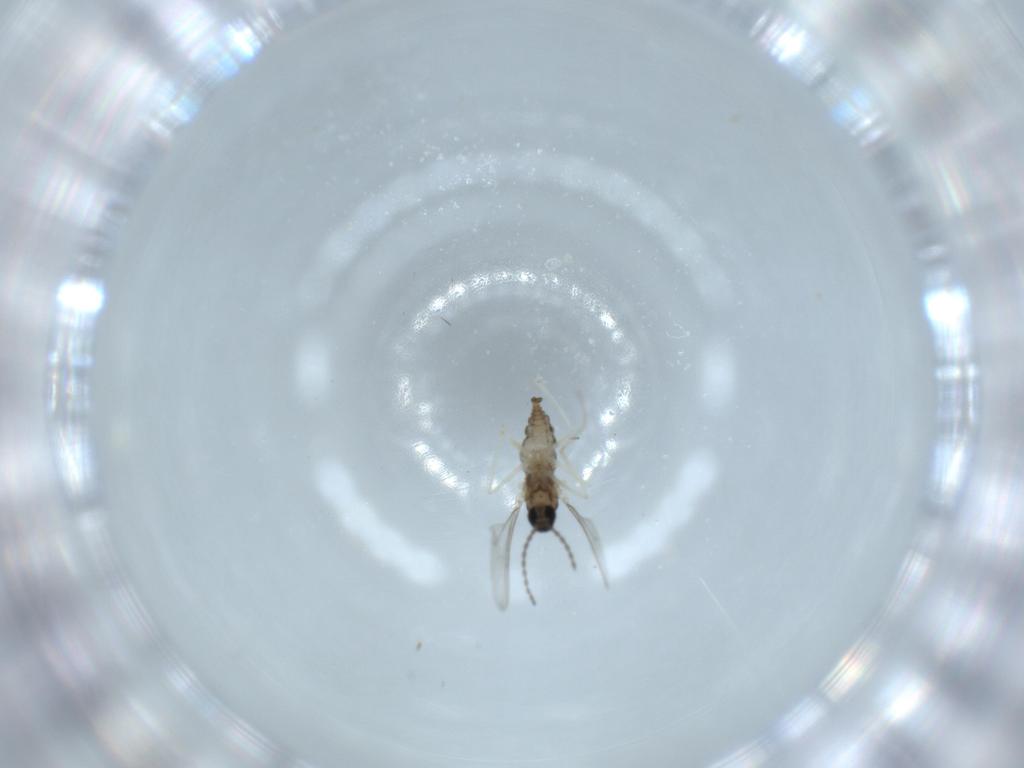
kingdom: Animalia
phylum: Arthropoda
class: Insecta
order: Diptera
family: Cecidomyiidae
